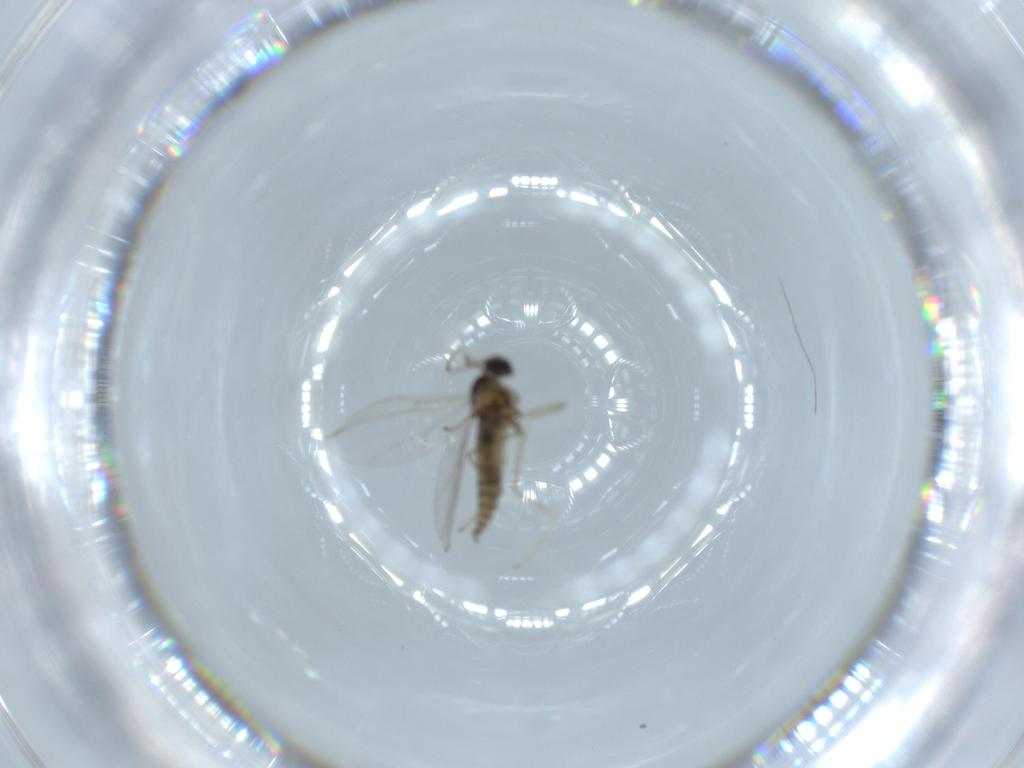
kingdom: Animalia
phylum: Arthropoda
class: Insecta
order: Diptera
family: Cecidomyiidae
